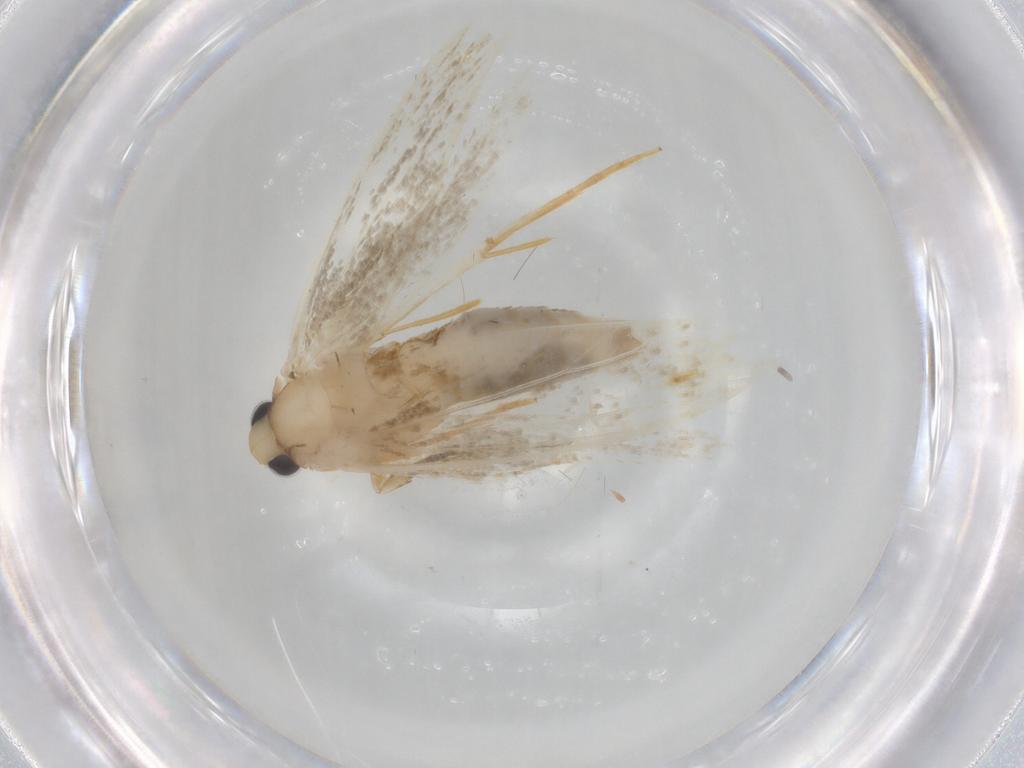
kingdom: Animalia
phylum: Arthropoda
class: Insecta
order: Lepidoptera
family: Tineidae
